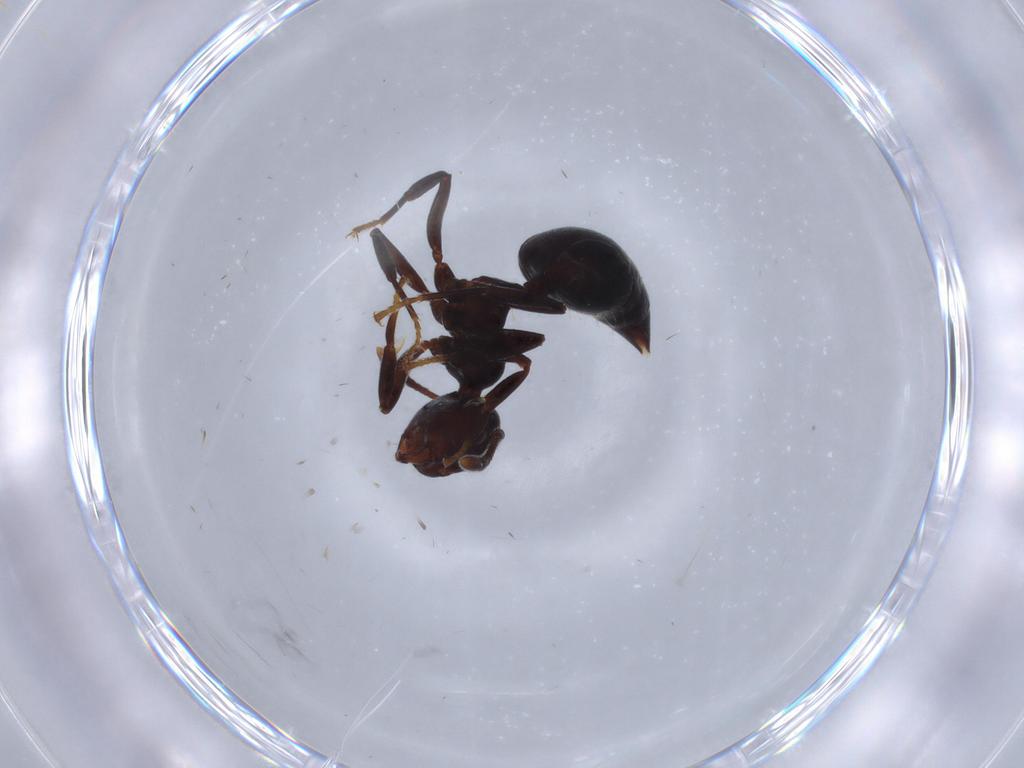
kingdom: Animalia
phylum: Arthropoda
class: Insecta
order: Hymenoptera
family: Formicidae
